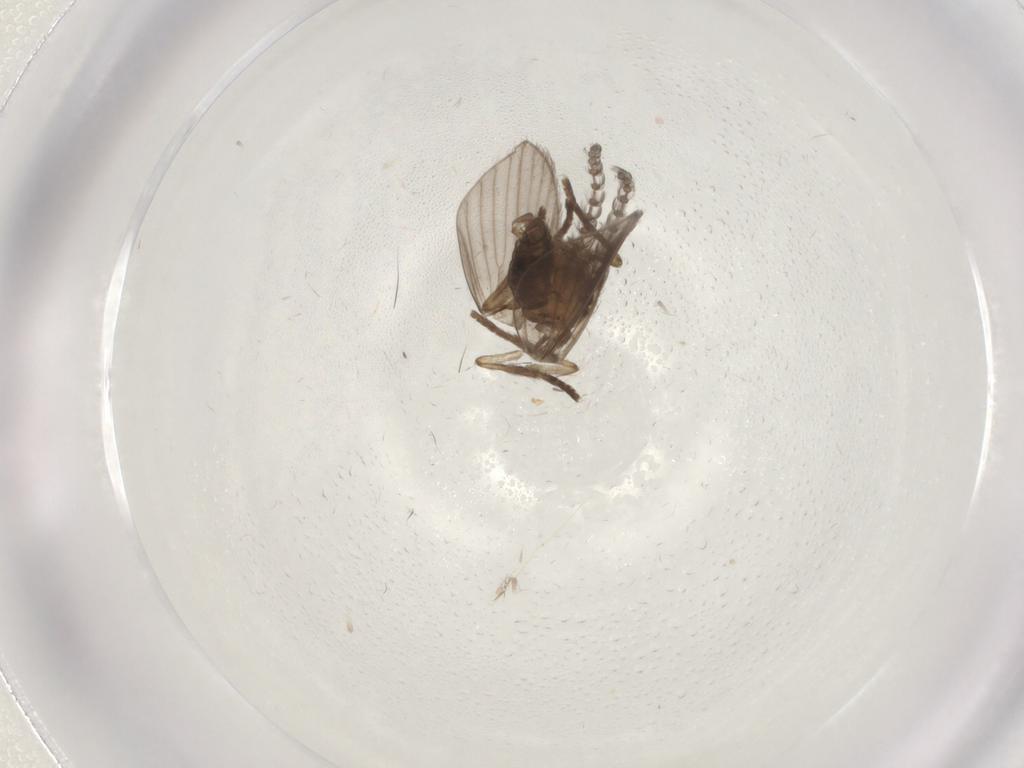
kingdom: Animalia
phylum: Arthropoda
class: Insecta
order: Diptera
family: Psychodidae
